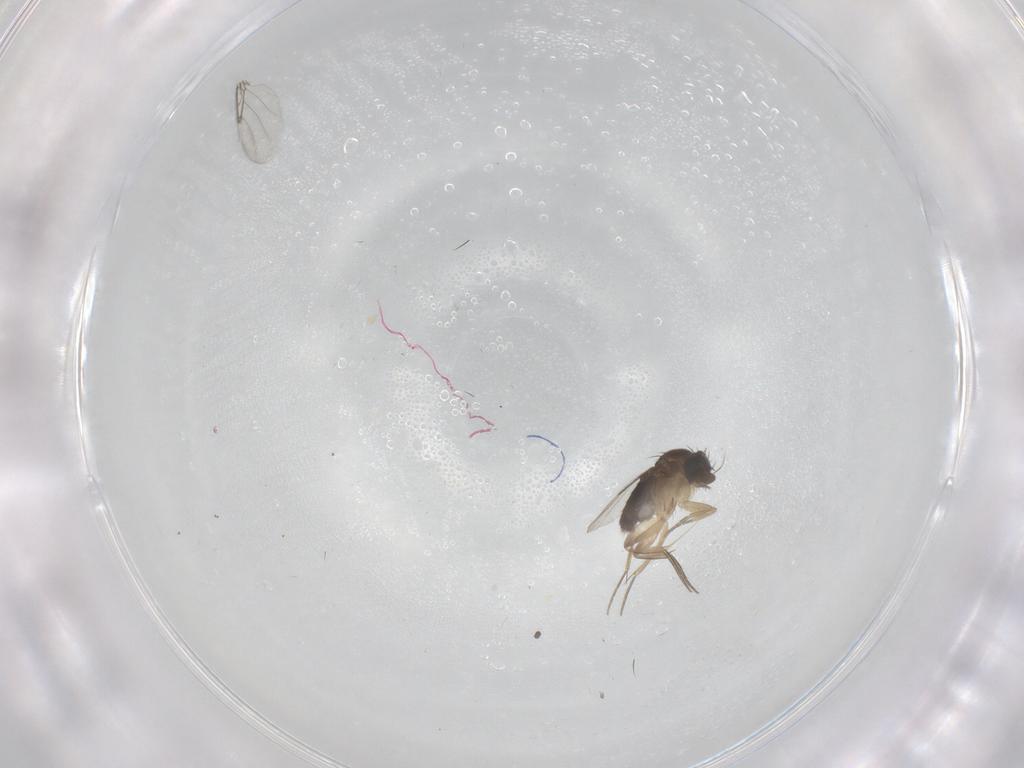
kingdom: Animalia
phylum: Arthropoda
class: Insecta
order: Diptera
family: Phoridae
